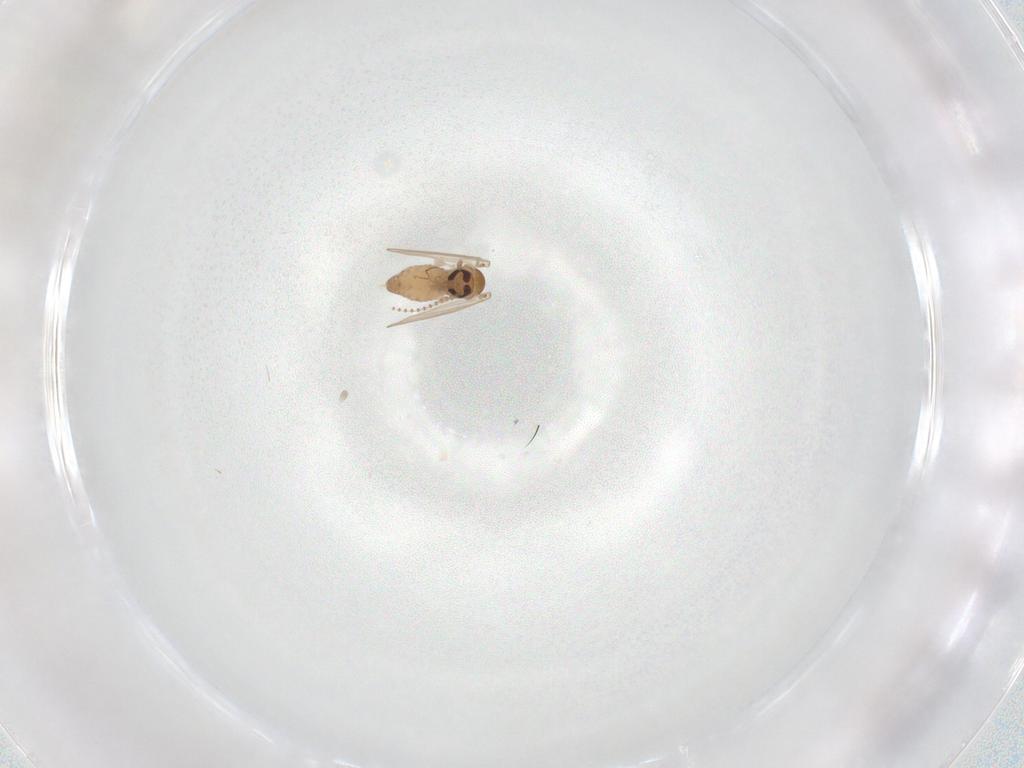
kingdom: Animalia
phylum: Arthropoda
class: Insecta
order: Diptera
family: Psychodidae
